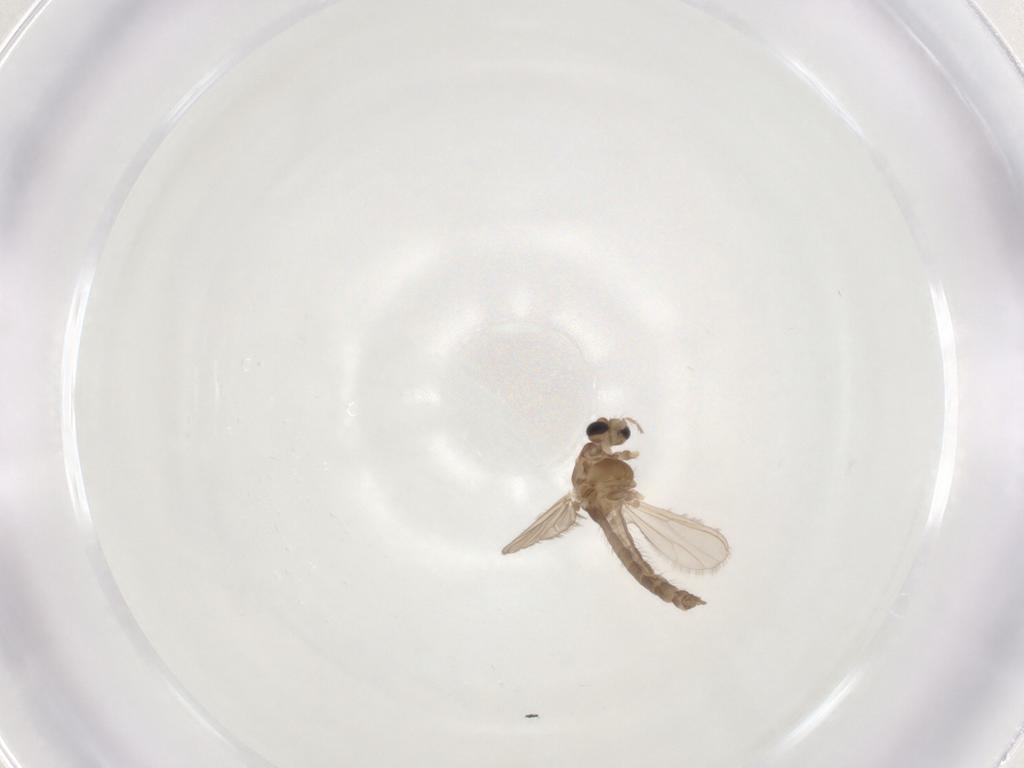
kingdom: Animalia
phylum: Arthropoda
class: Insecta
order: Diptera
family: Chironomidae
